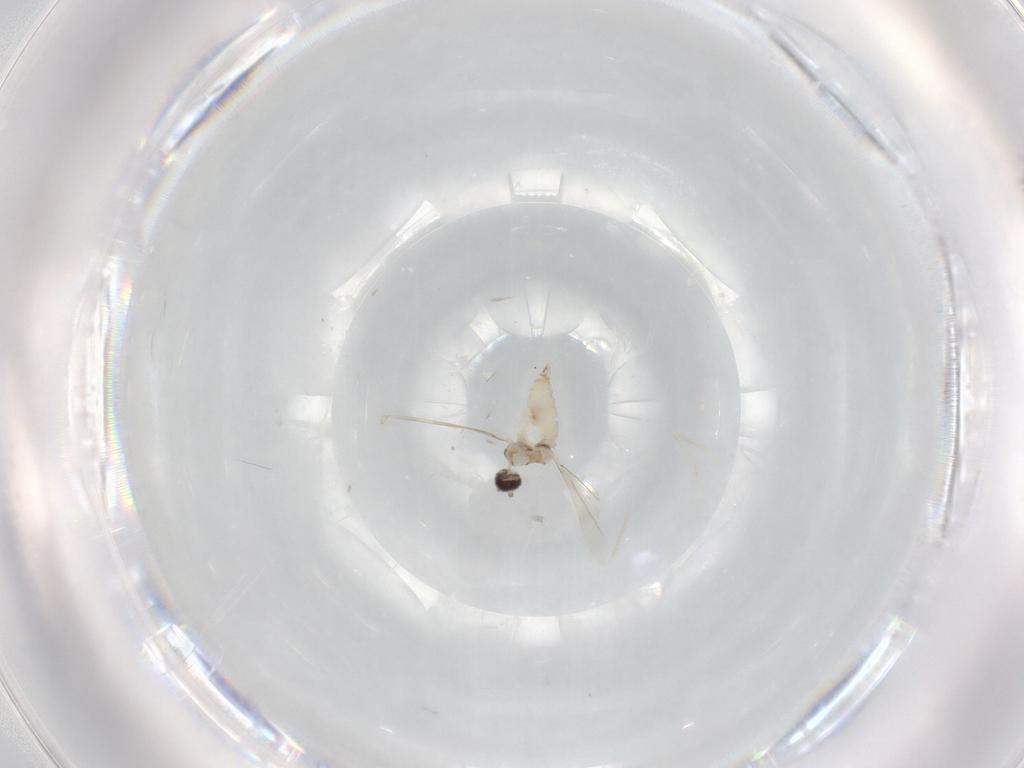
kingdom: Animalia
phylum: Arthropoda
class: Insecta
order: Diptera
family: Cecidomyiidae
